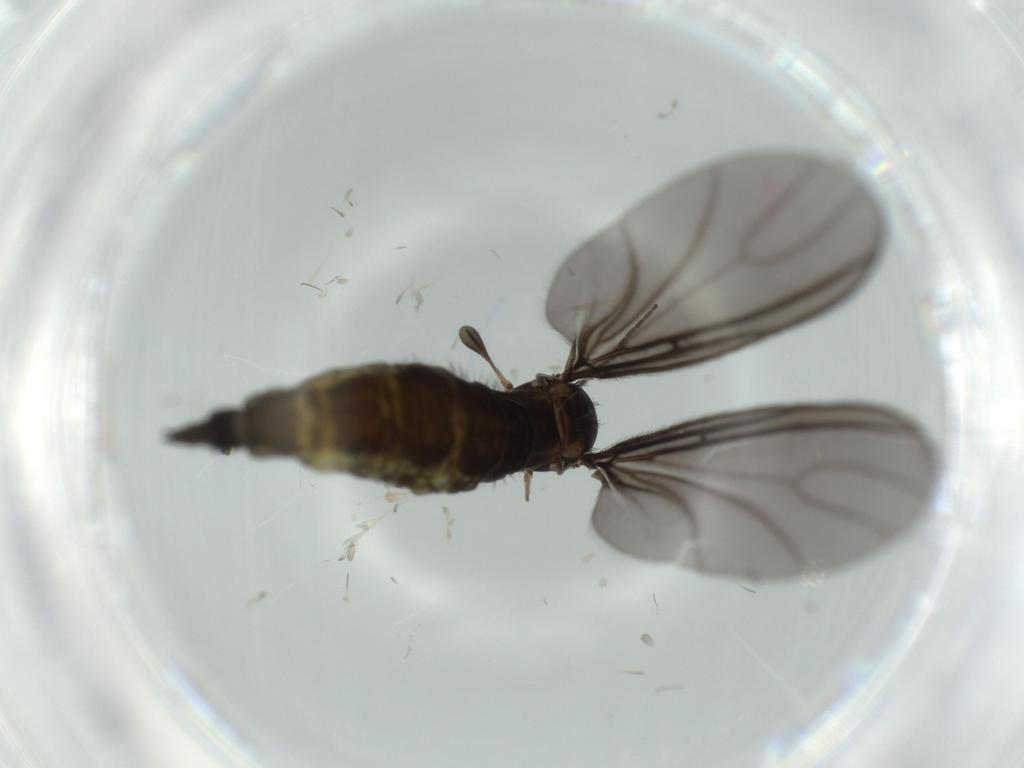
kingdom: Animalia
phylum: Arthropoda
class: Insecta
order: Diptera
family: Sciaridae
